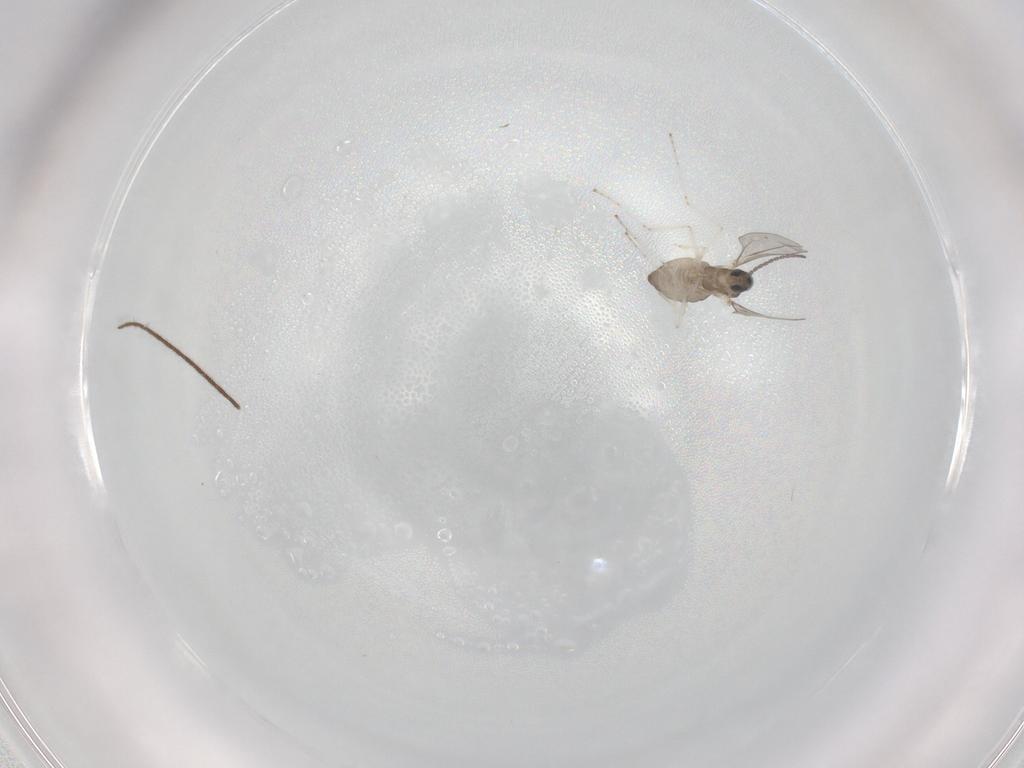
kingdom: Animalia
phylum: Arthropoda
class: Insecta
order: Diptera
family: Cecidomyiidae
